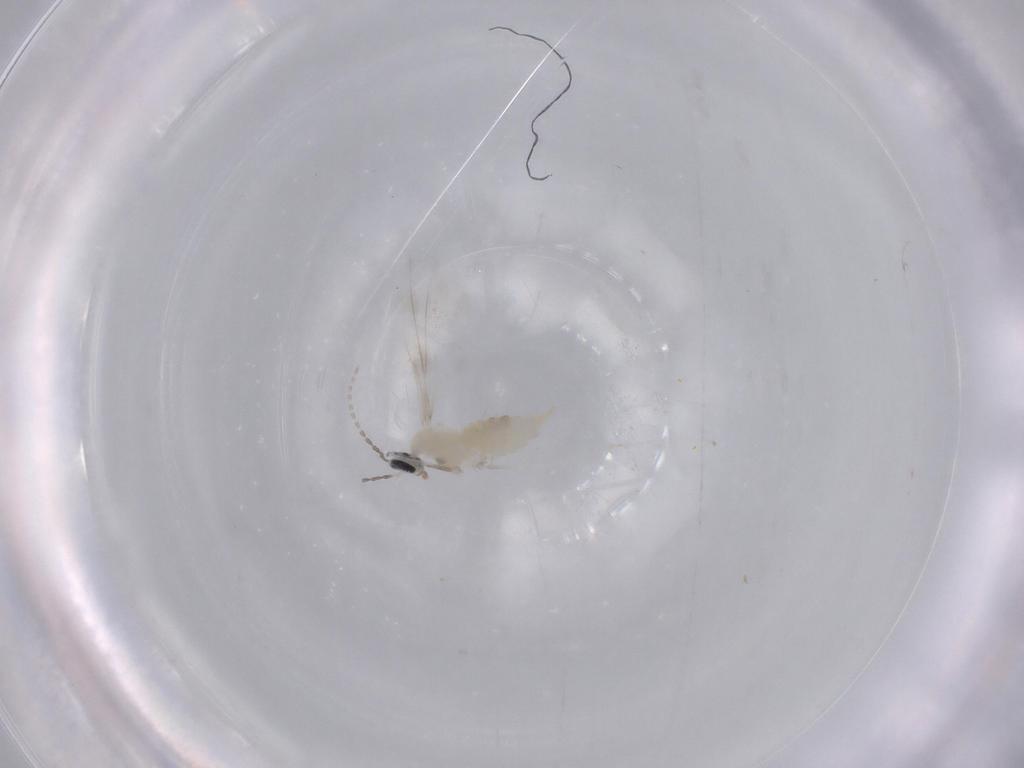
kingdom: Animalia
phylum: Arthropoda
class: Insecta
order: Diptera
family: Cecidomyiidae
